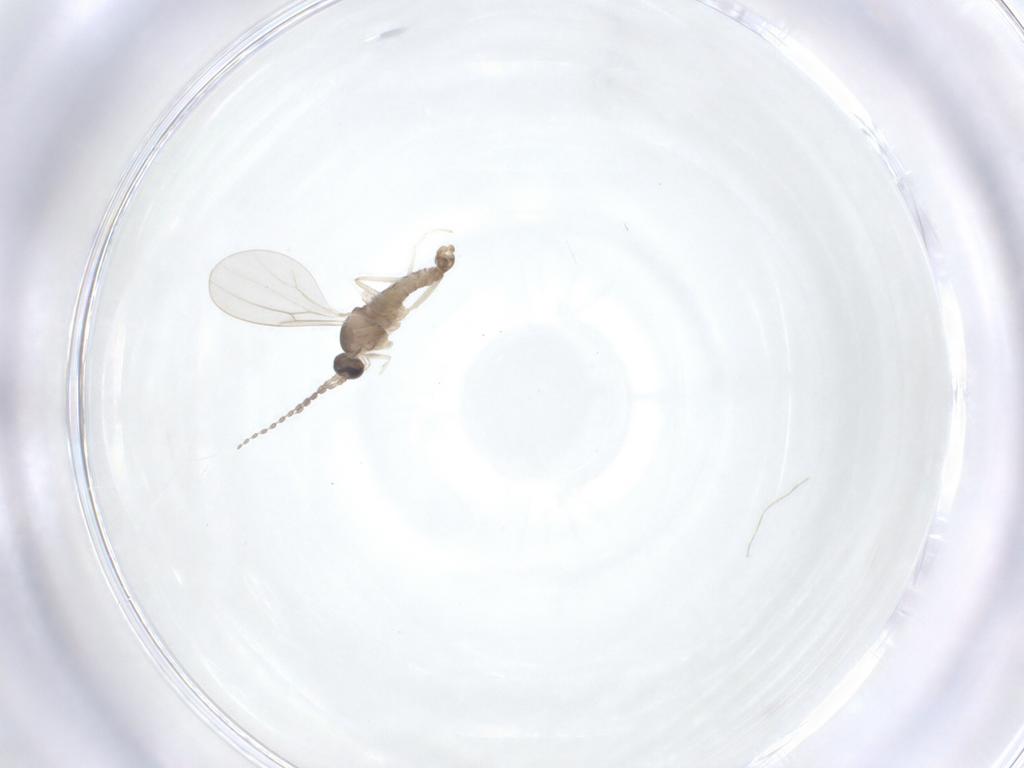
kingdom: Animalia
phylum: Arthropoda
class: Insecta
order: Diptera
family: Cecidomyiidae
